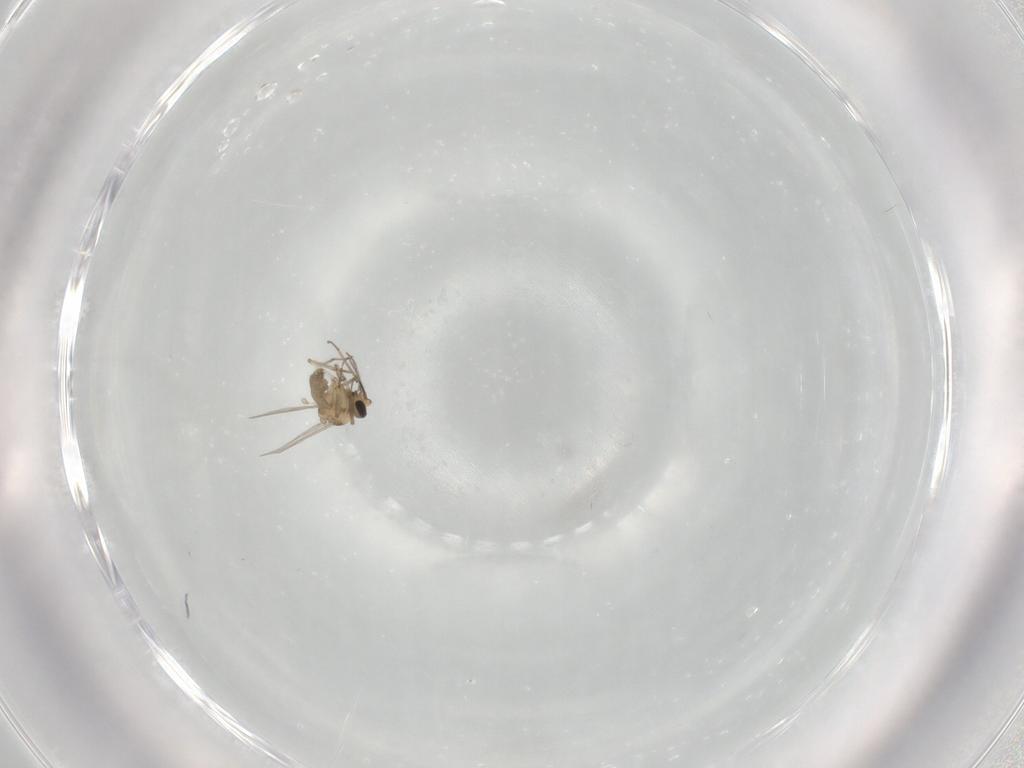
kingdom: Animalia
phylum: Arthropoda
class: Insecta
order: Diptera
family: Ceratopogonidae
